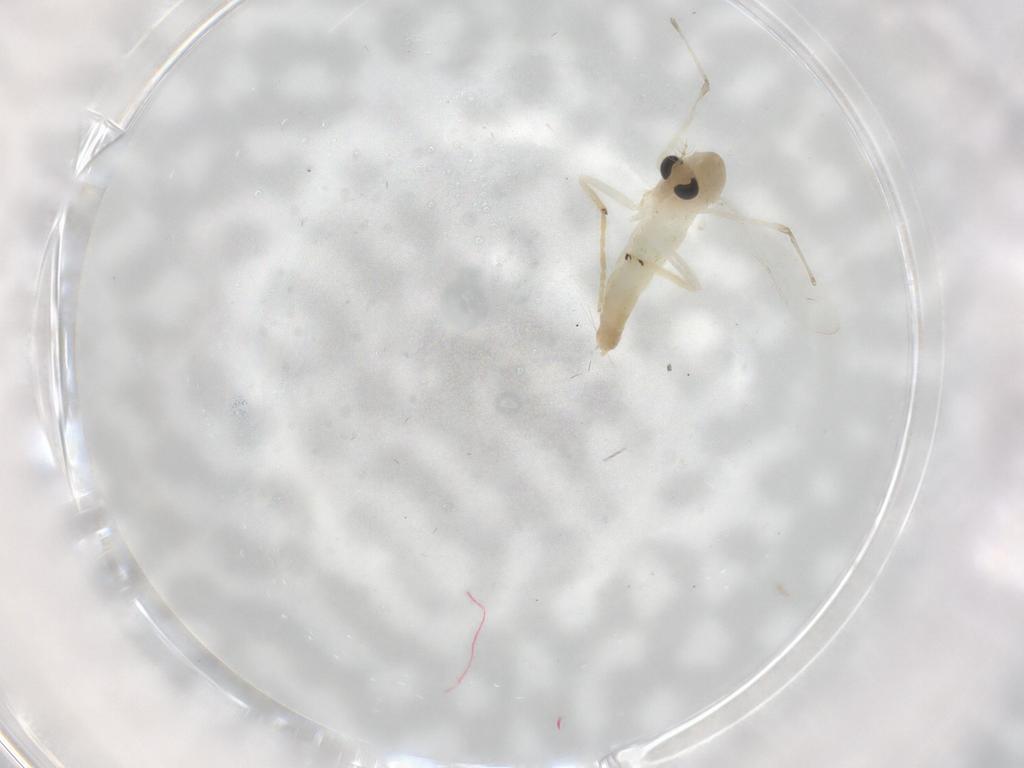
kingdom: Animalia
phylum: Arthropoda
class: Insecta
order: Diptera
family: Chironomidae
